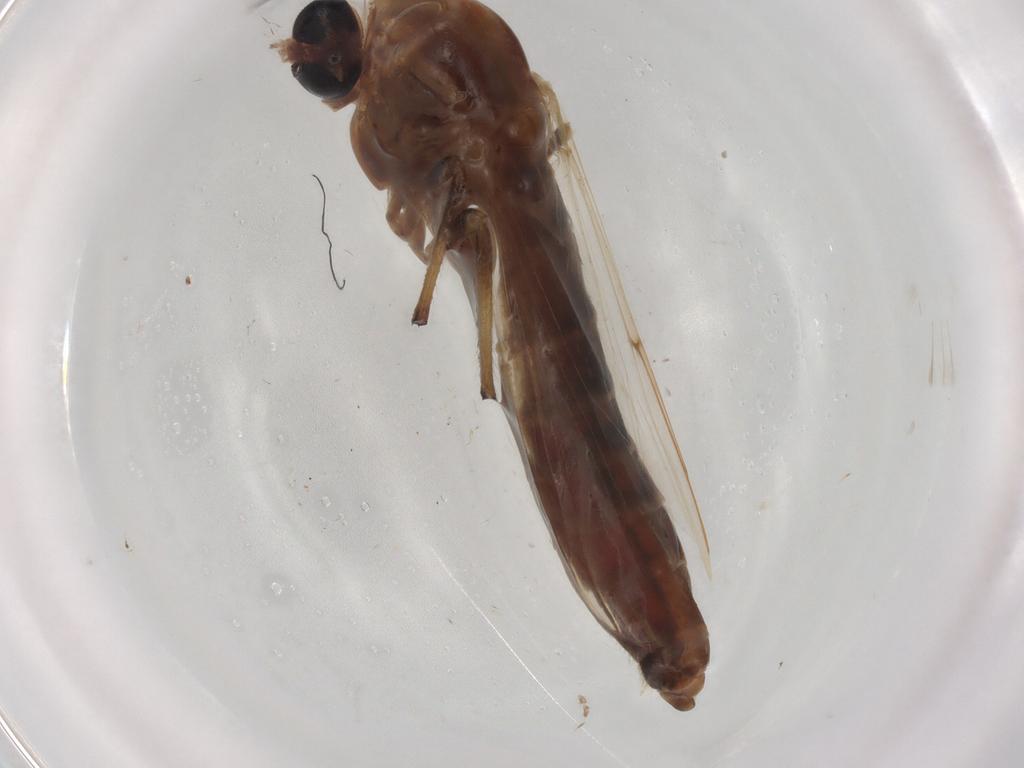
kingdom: Animalia
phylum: Arthropoda
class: Insecta
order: Diptera
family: Chironomidae
